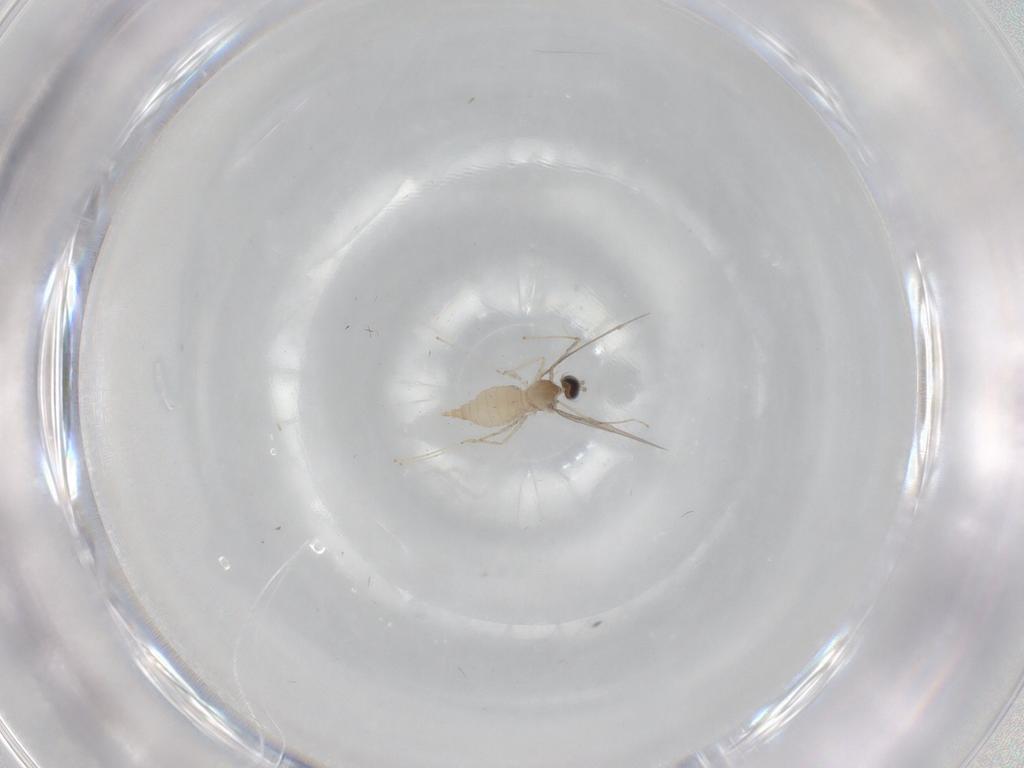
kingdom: Animalia
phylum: Arthropoda
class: Insecta
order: Diptera
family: Cecidomyiidae
